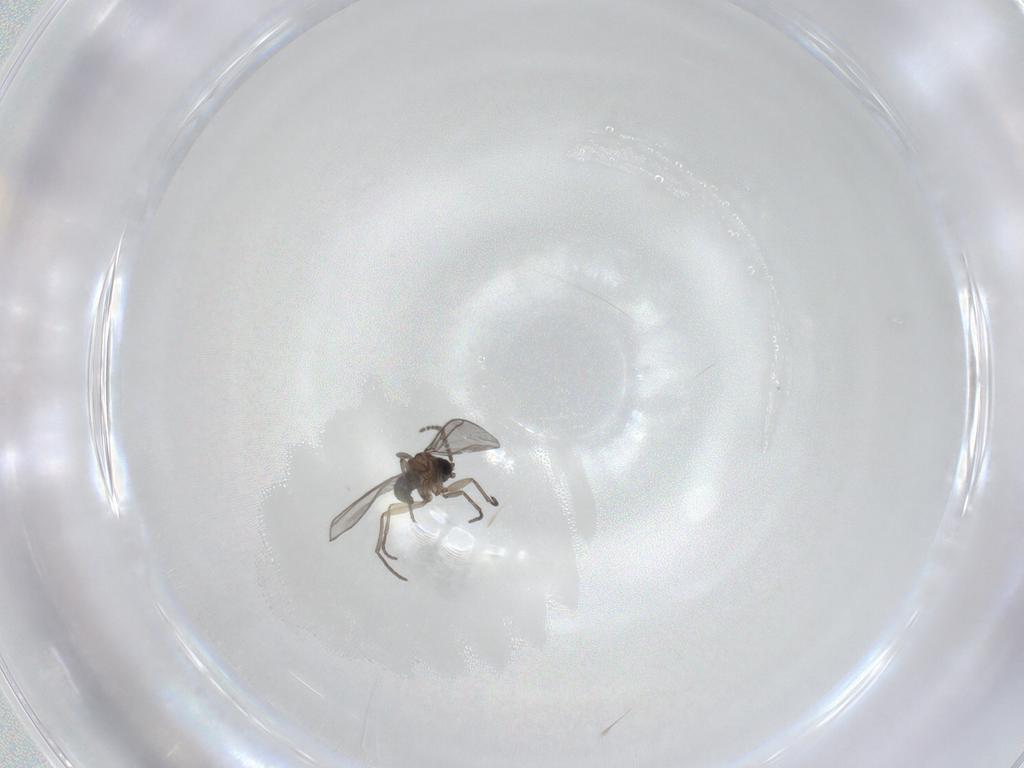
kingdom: Animalia
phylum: Arthropoda
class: Insecta
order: Diptera
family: Sciaridae
